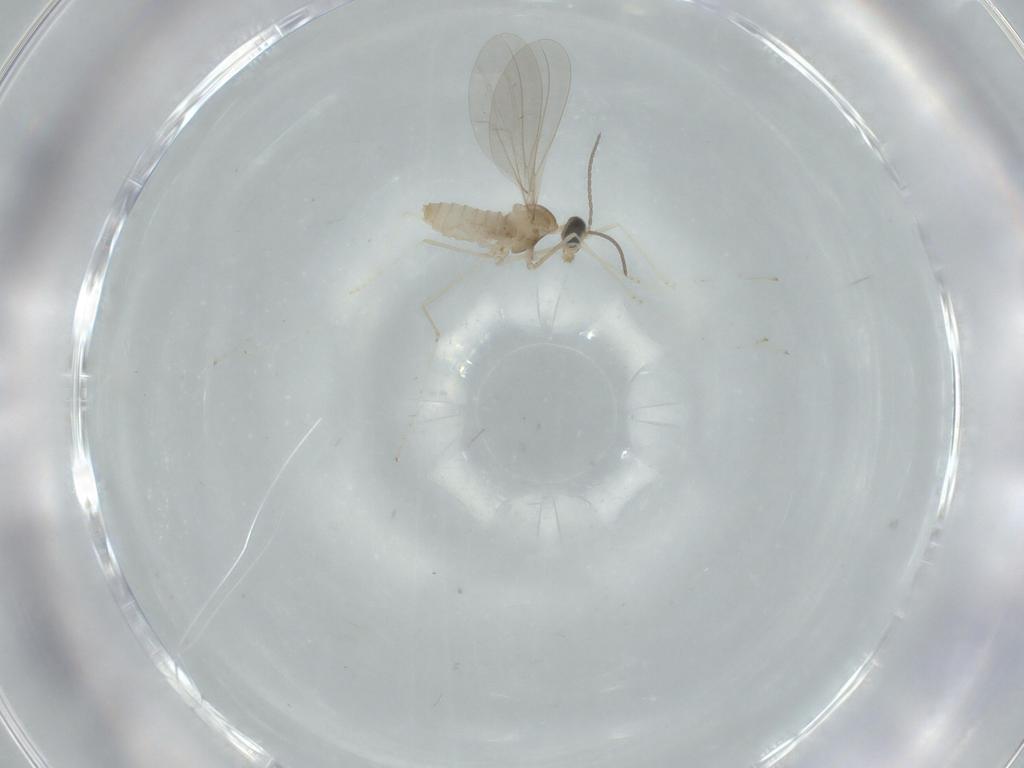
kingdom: Animalia
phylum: Arthropoda
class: Insecta
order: Diptera
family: Cecidomyiidae
